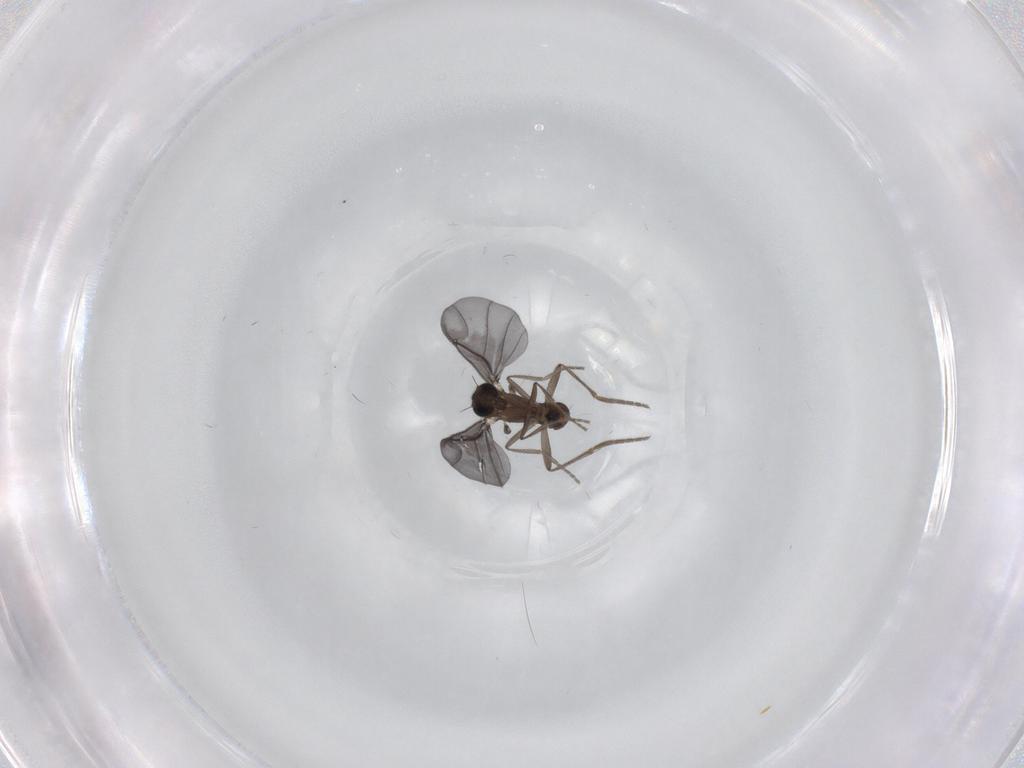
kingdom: Animalia
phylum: Arthropoda
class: Insecta
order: Diptera
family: Phoridae
